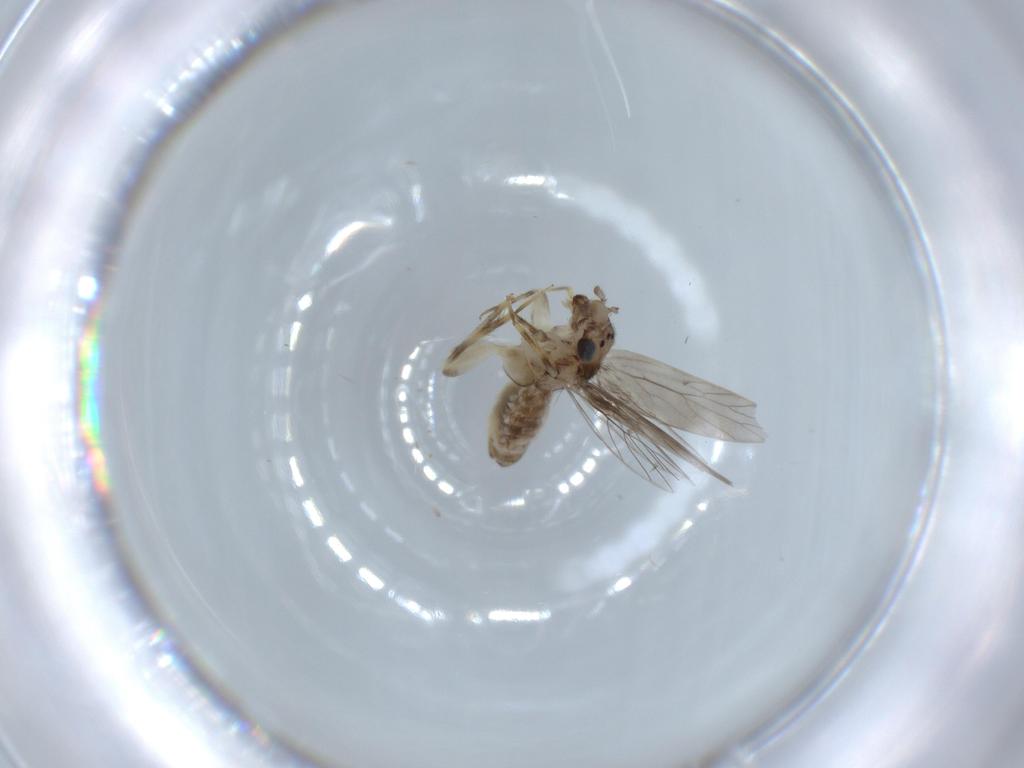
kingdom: Animalia
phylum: Arthropoda
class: Insecta
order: Psocodea
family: Lepidopsocidae
